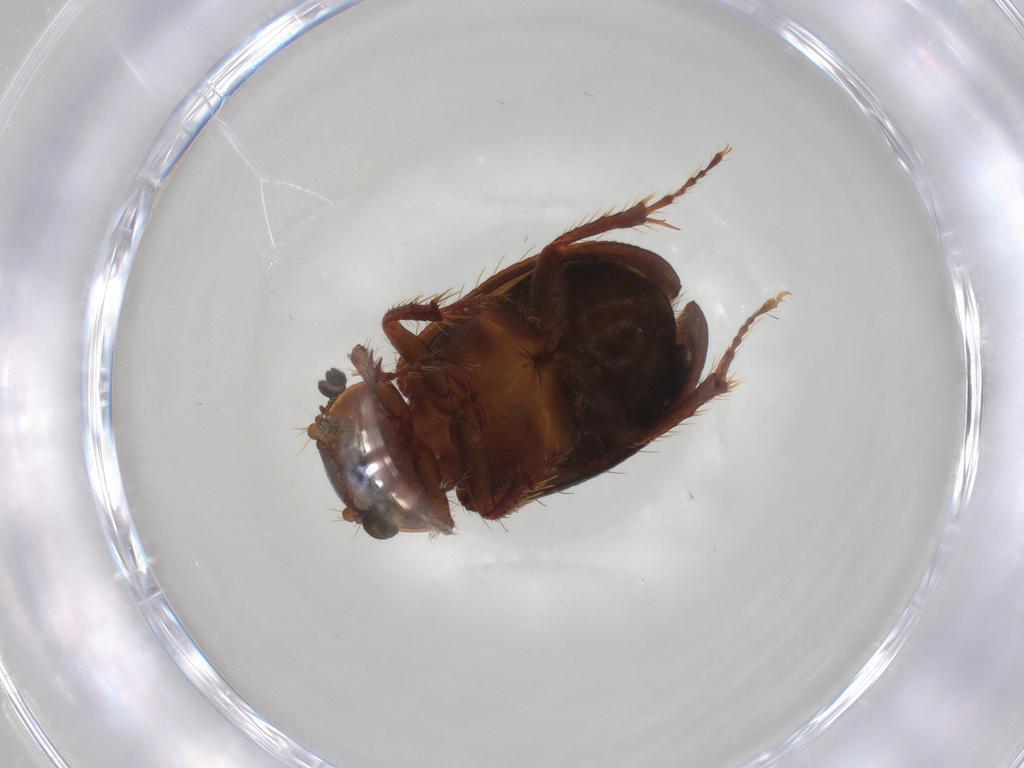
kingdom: Animalia
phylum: Arthropoda
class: Insecta
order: Coleoptera
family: Hybosoridae
